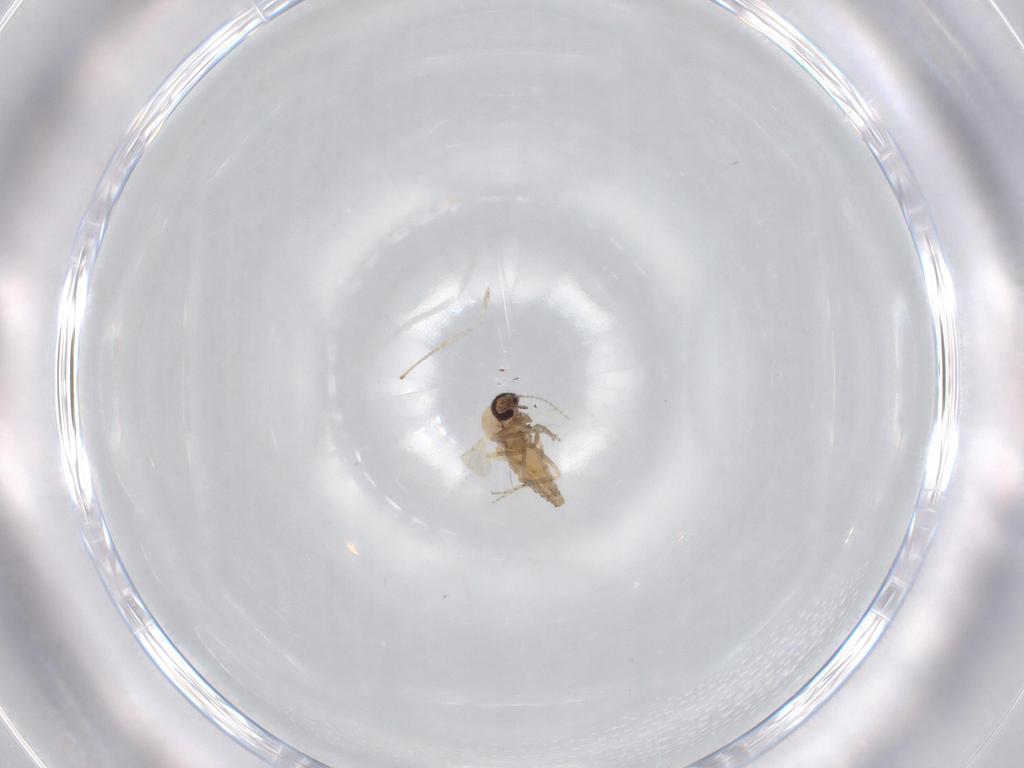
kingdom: Animalia
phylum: Arthropoda
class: Insecta
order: Diptera
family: Ceratopogonidae
